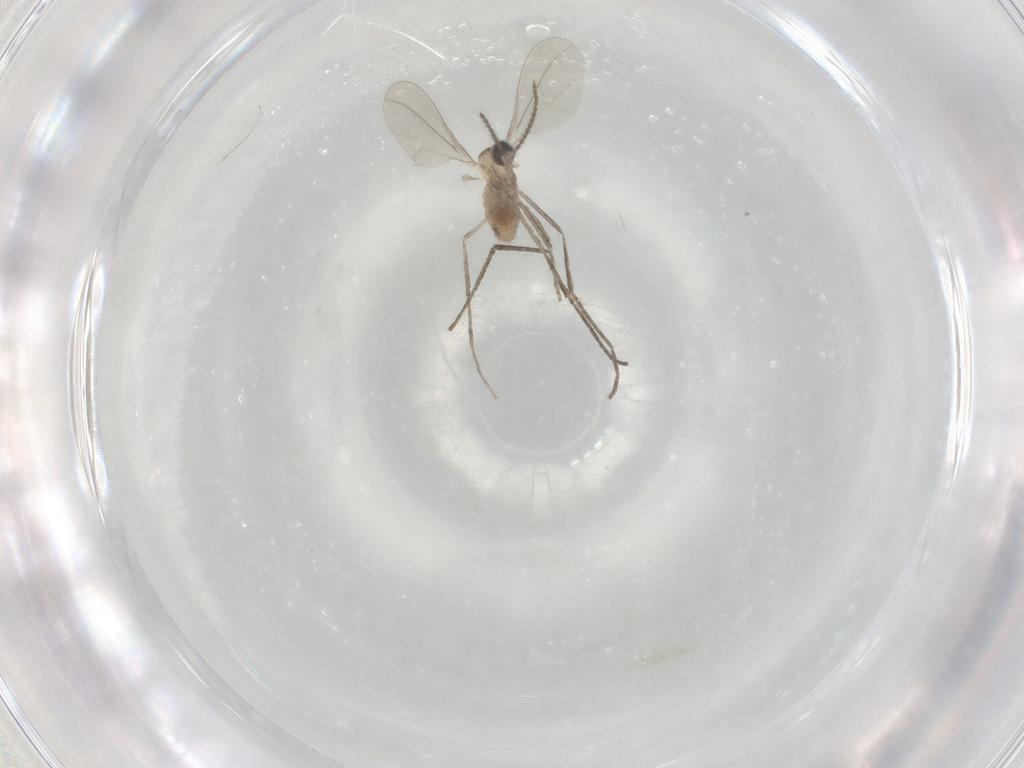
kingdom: Animalia
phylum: Arthropoda
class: Insecta
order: Diptera
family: Cecidomyiidae
